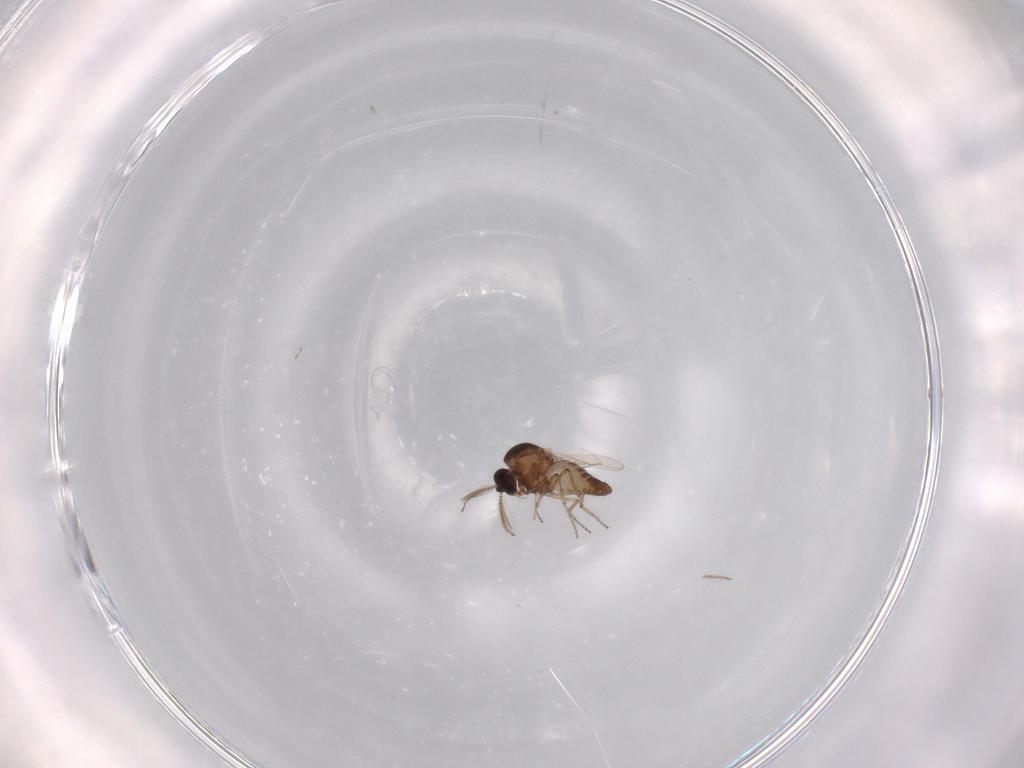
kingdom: Animalia
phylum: Arthropoda
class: Insecta
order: Diptera
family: Ceratopogonidae
